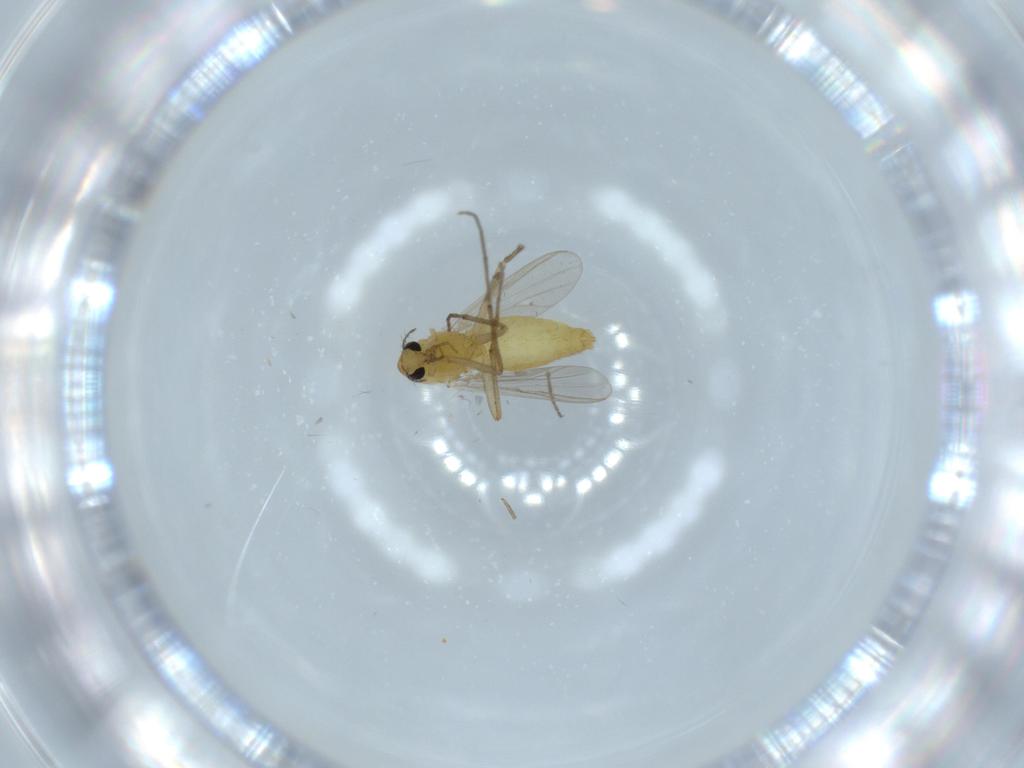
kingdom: Animalia
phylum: Arthropoda
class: Insecta
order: Diptera
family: Chironomidae
